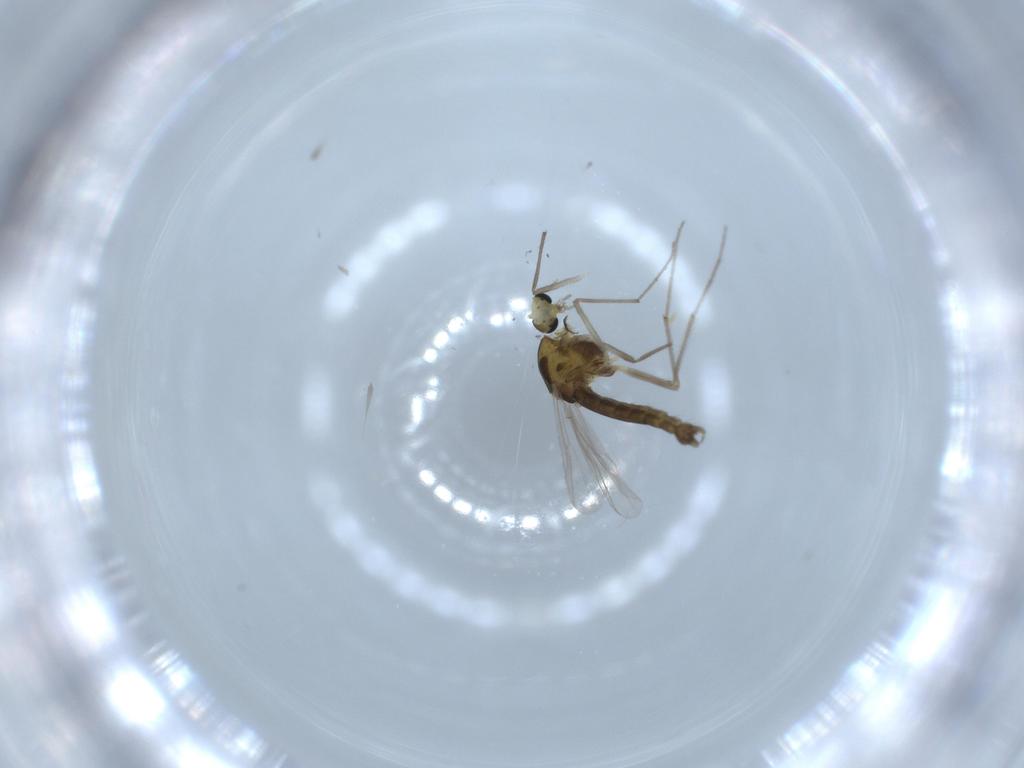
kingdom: Animalia
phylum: Arthropoda
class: Insecta
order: Diptera
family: Chironomidae
